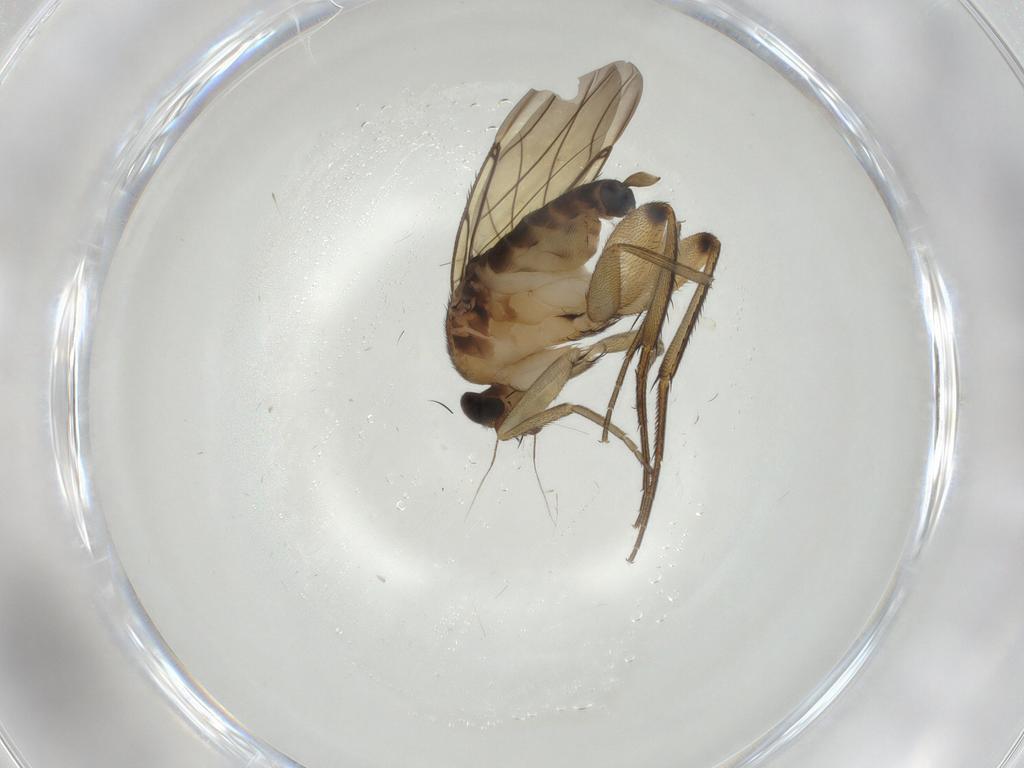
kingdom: Animalia
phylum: Arthropoda
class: Insecta
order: Diptera
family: Phoridae
